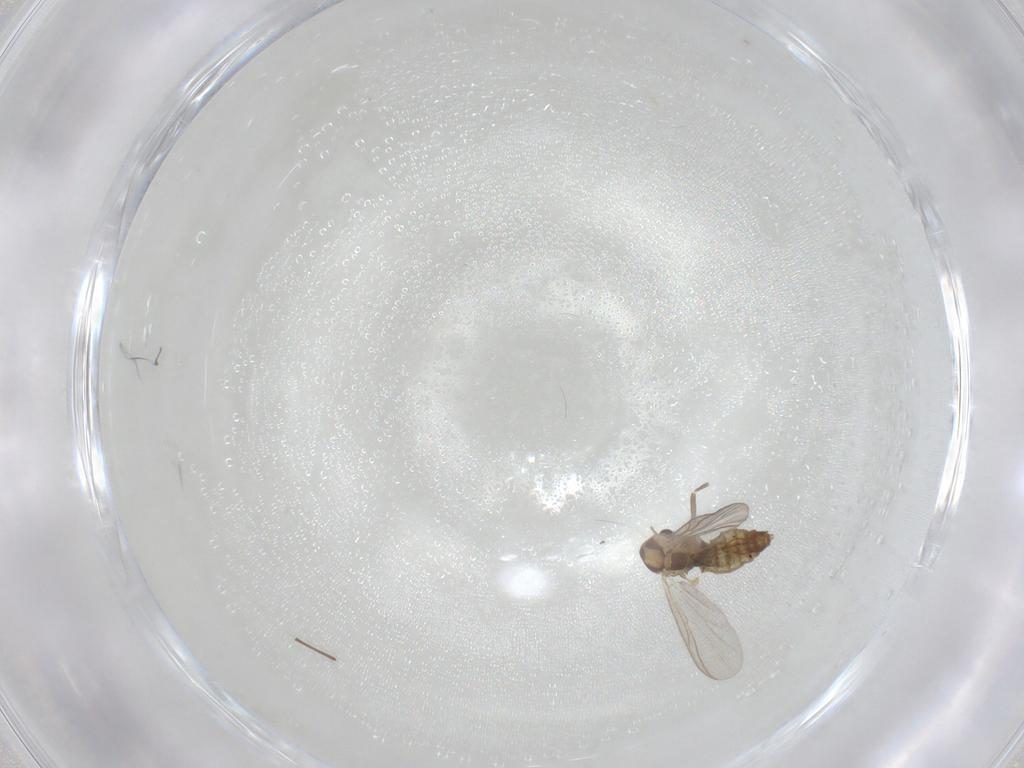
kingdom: Animalia
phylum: Arthropoda
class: Insecta
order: Diptera
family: Chironomidae
